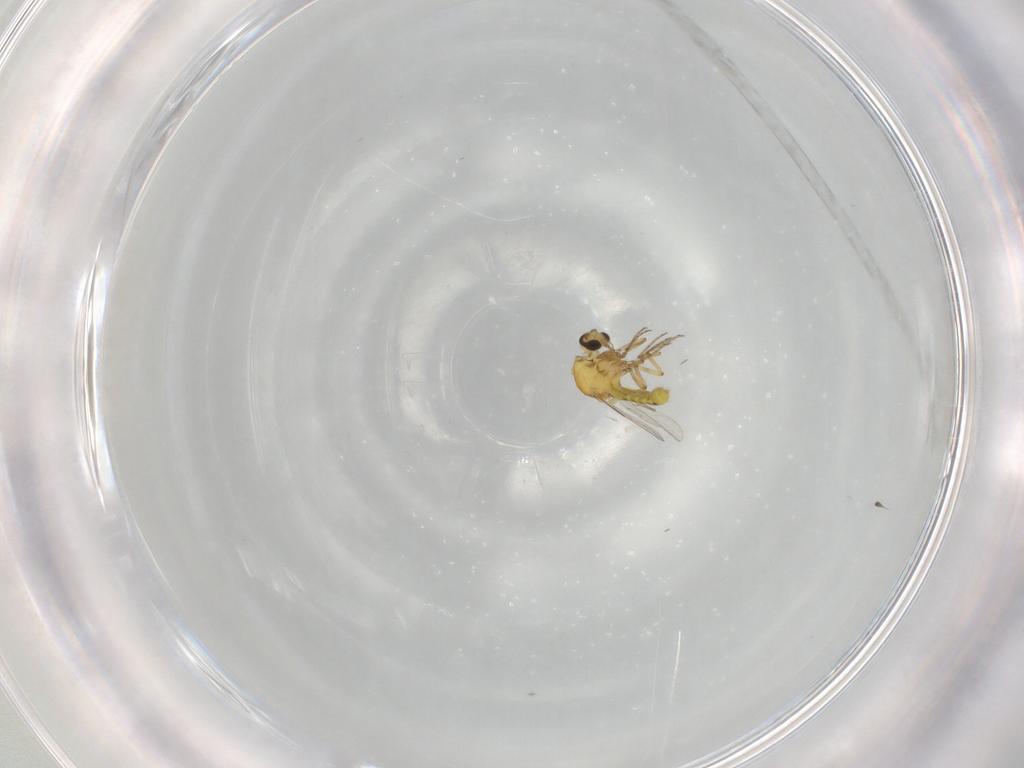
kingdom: Animalia
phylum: Arthropoda
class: Insecta
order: Diptera
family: Ceratopogonidae
